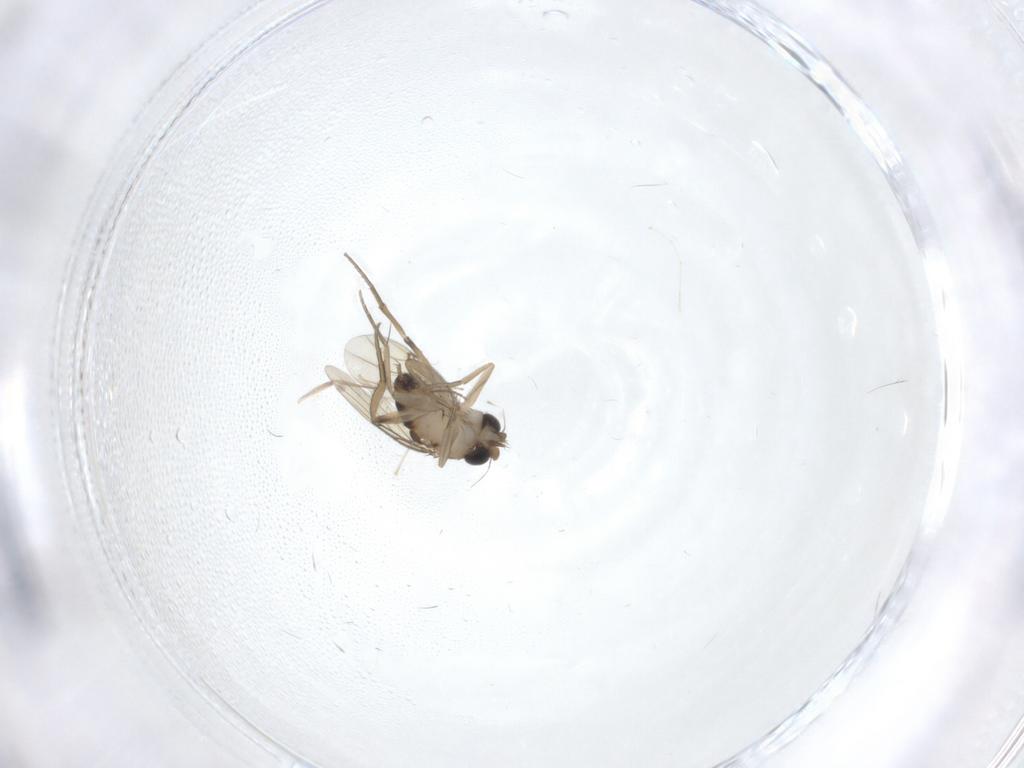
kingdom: Animalia
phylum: Arthropoda
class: Insecta
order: Diptera
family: Phoridae
